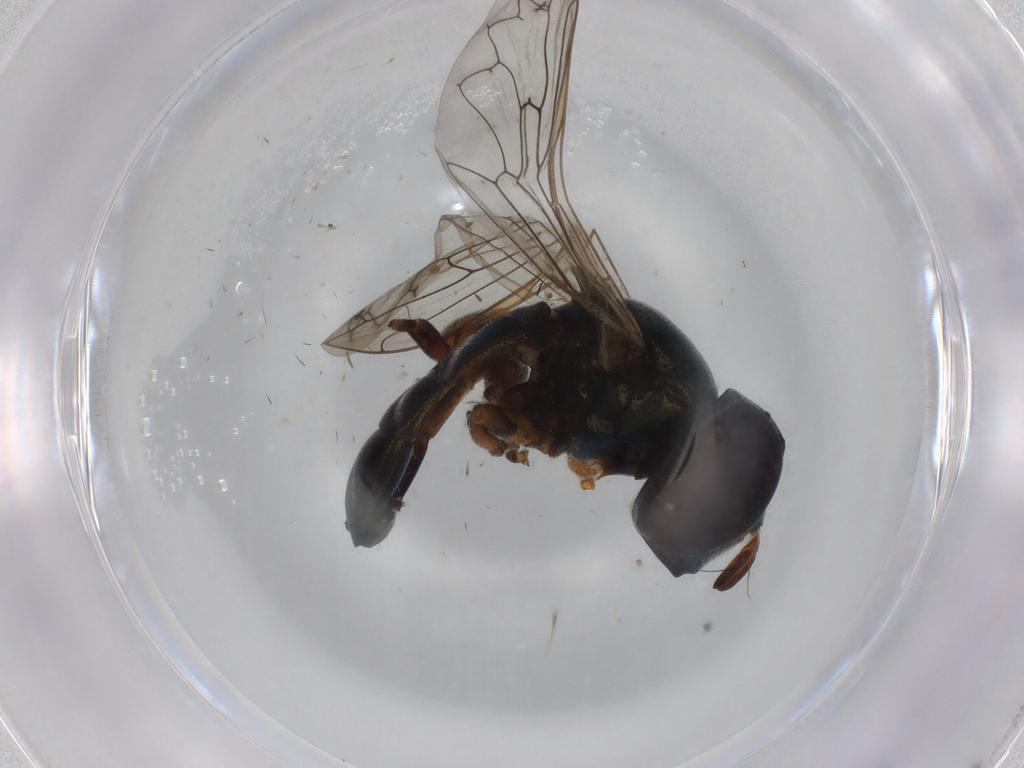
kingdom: Animalia
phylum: Arthropoda
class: Insecta
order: Diptera
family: Syrphidae
